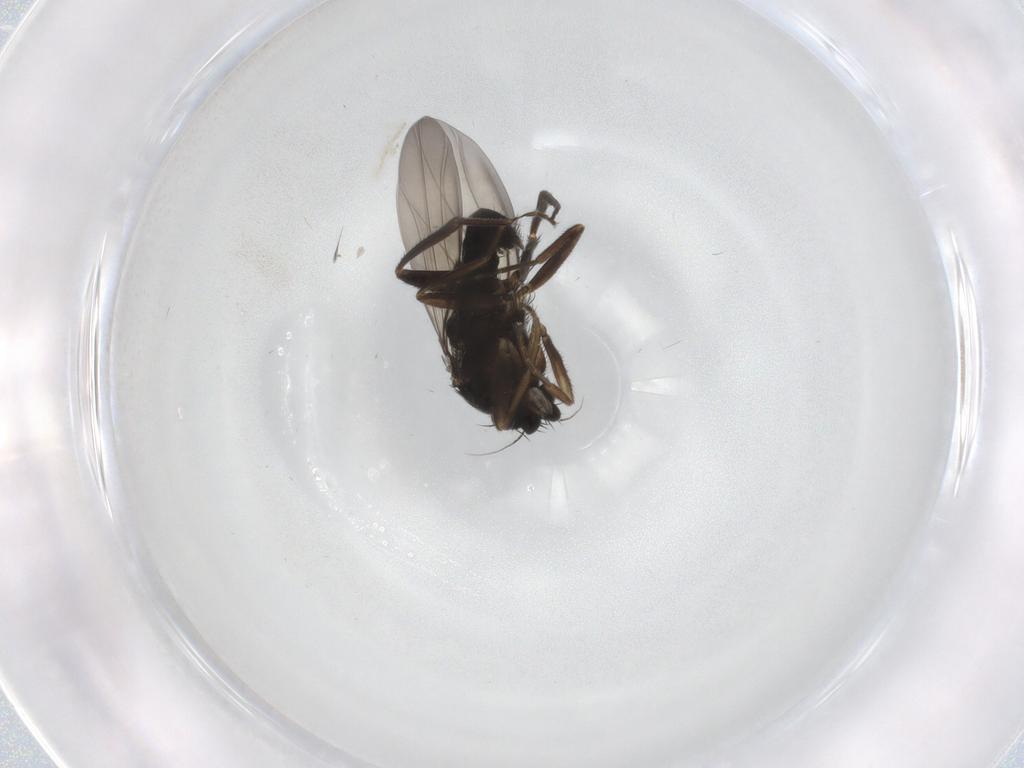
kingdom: Animalia
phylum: Arthropoda
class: Insecta
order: Diptera
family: Phoridae
